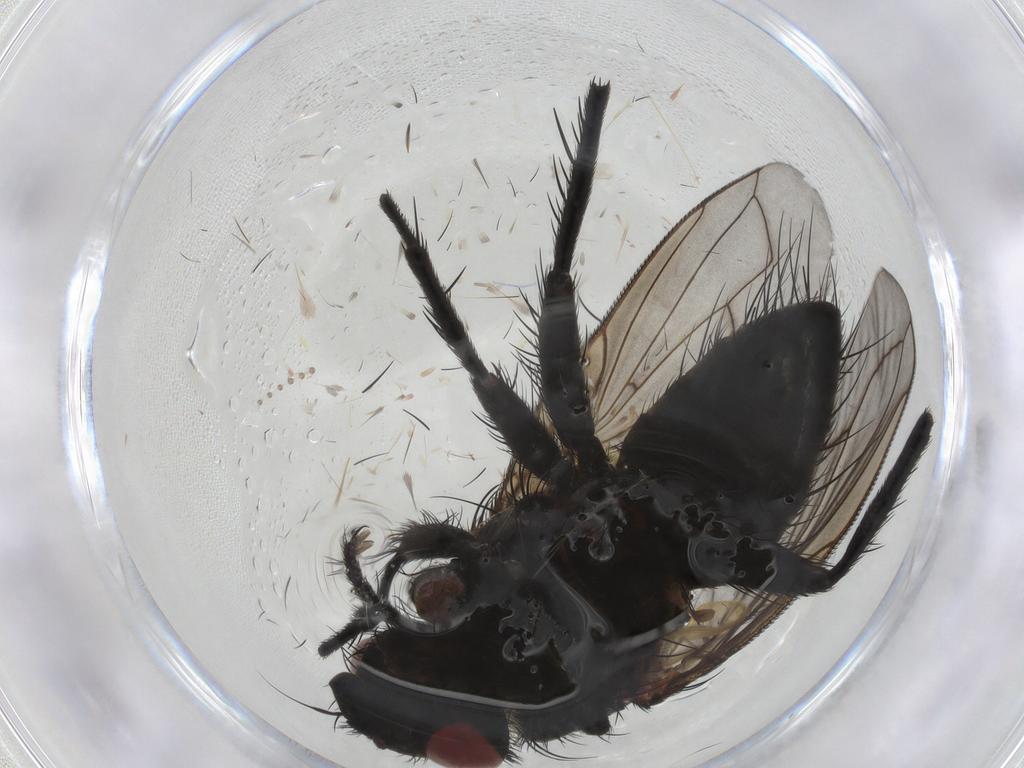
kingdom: Animalia
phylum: Arthropoda
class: Insecta
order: Diptera
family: Tachinidae
